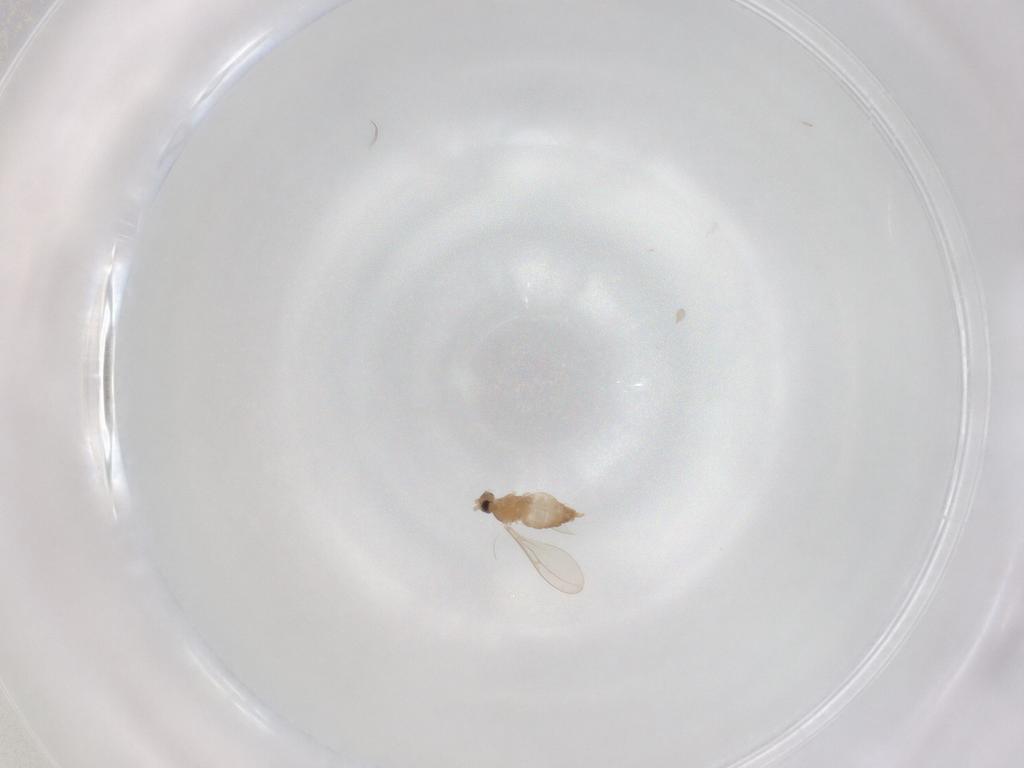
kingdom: Animalia
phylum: Arthropoda
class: Insecta
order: Diptera
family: Cecidomyiidae
